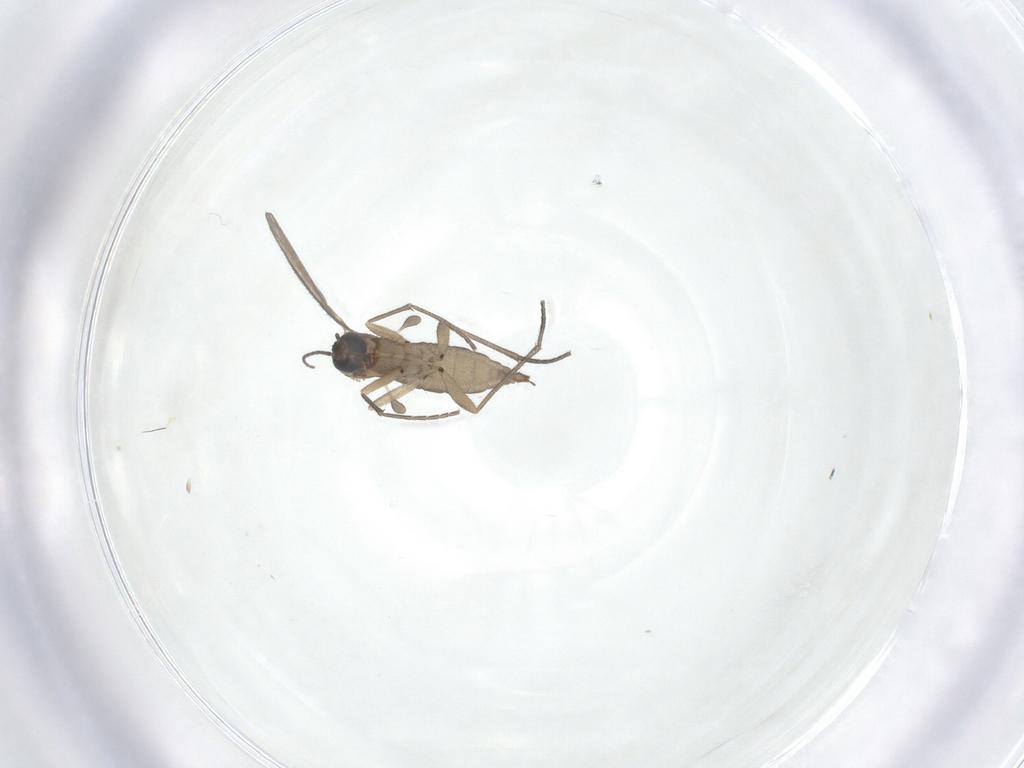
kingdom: Animalia
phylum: Arthropoda
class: Insecta
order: Diptera
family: Sciaridae
